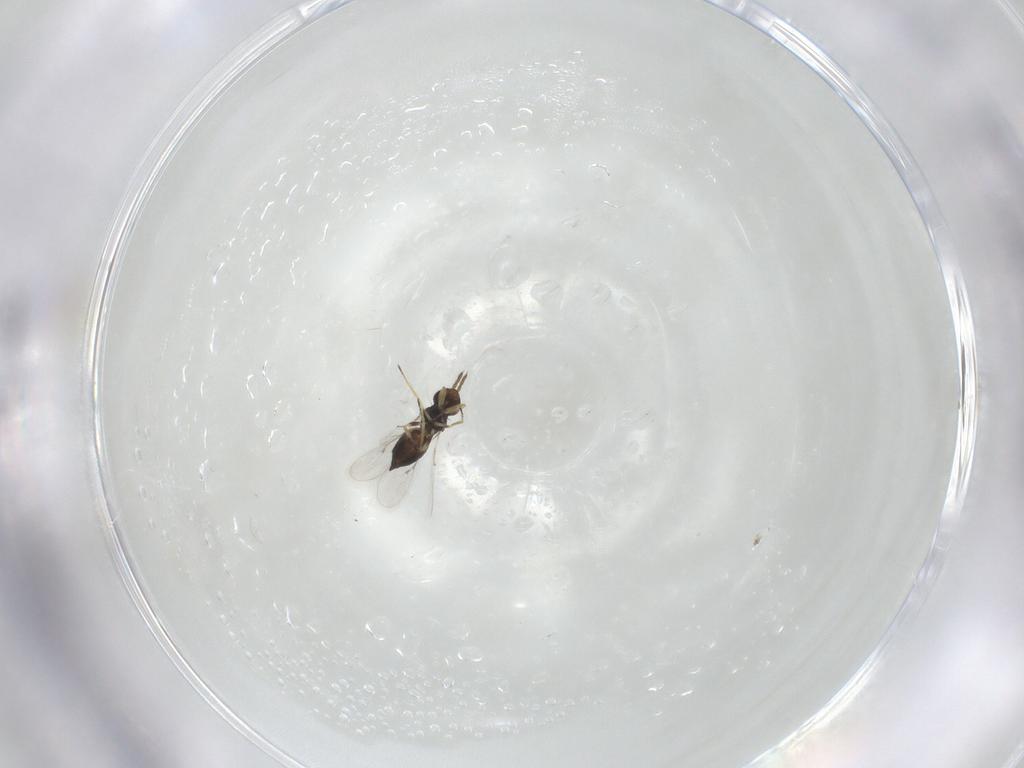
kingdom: Animalia
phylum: Arthropoda
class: Insecta
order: Hymenoptera
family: Eulophidae
